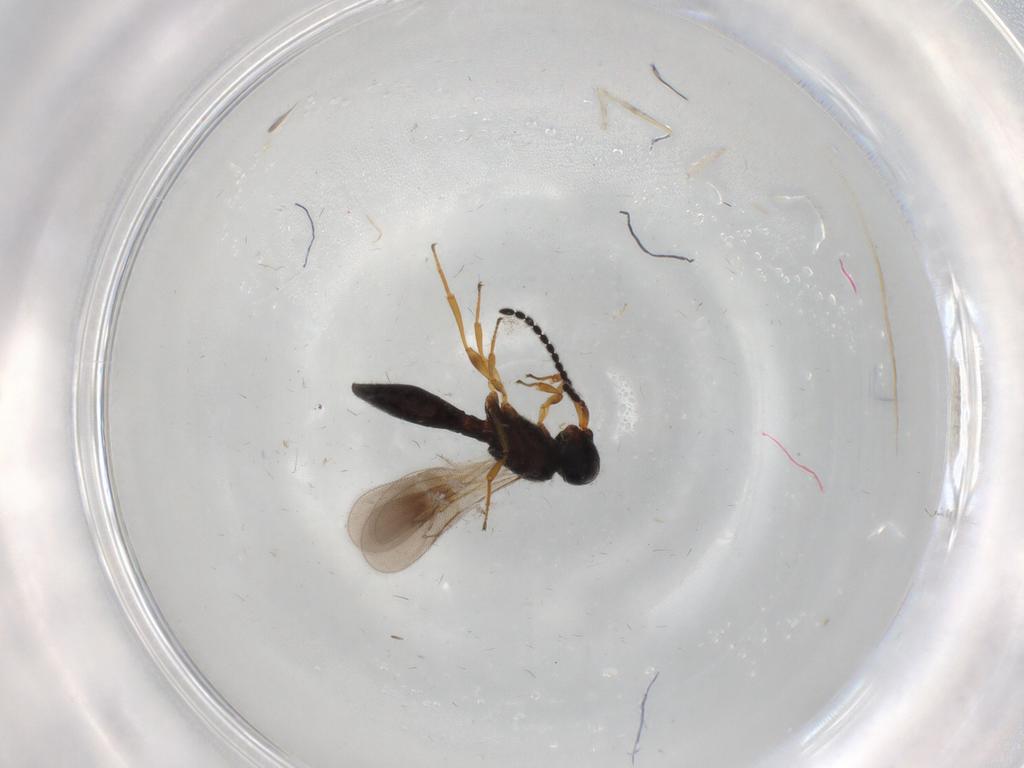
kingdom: Animalia
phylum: Arthropoda
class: Insecta
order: Hymenoptera
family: Scelionidae
